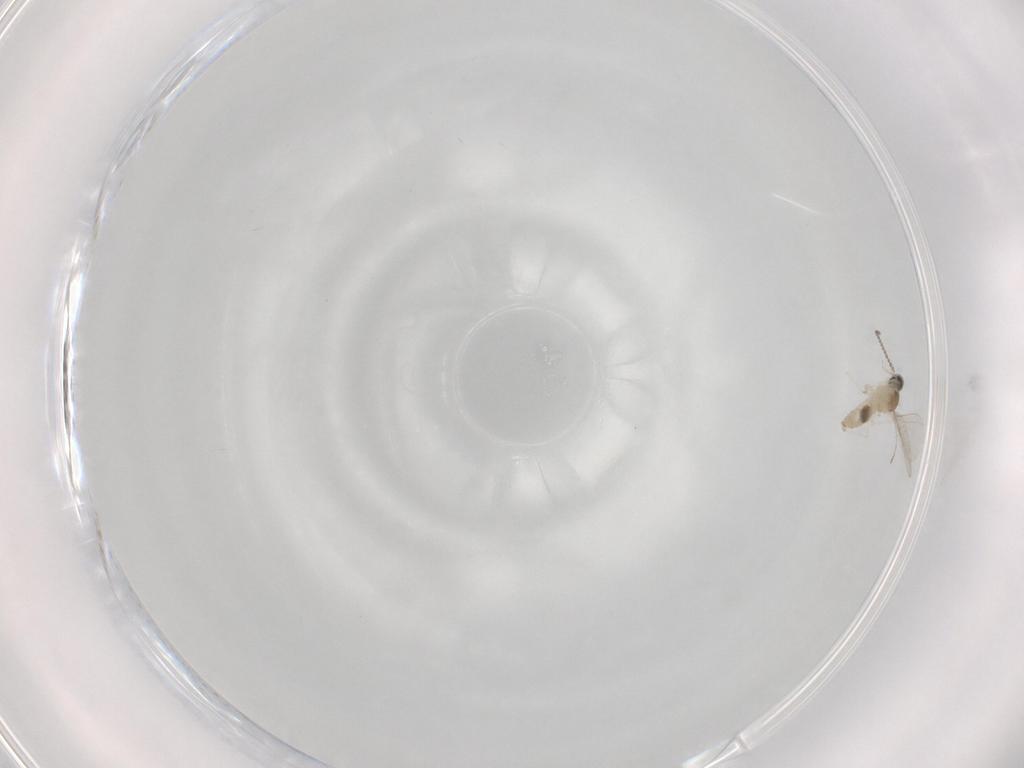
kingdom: Animalia
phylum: Arthropoda
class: Insecta
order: Diptera
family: Cecidomyiidae
